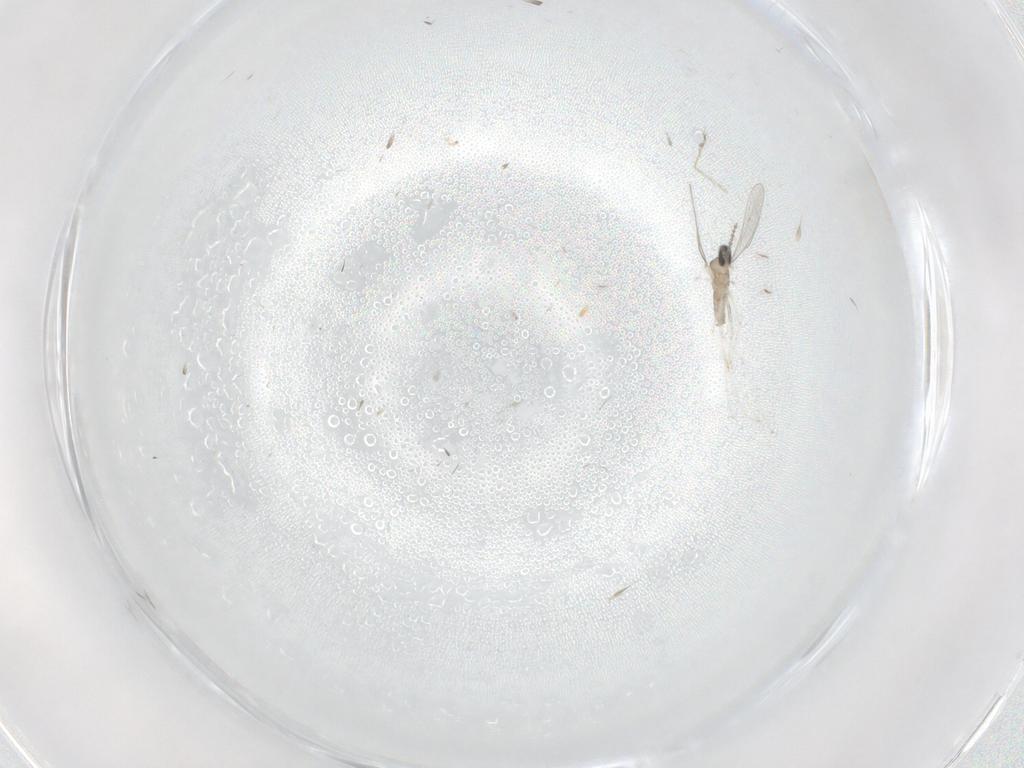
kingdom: Animalia
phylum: Arthropoda
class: Insecta
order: Diptera
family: Cecidomyiidae
